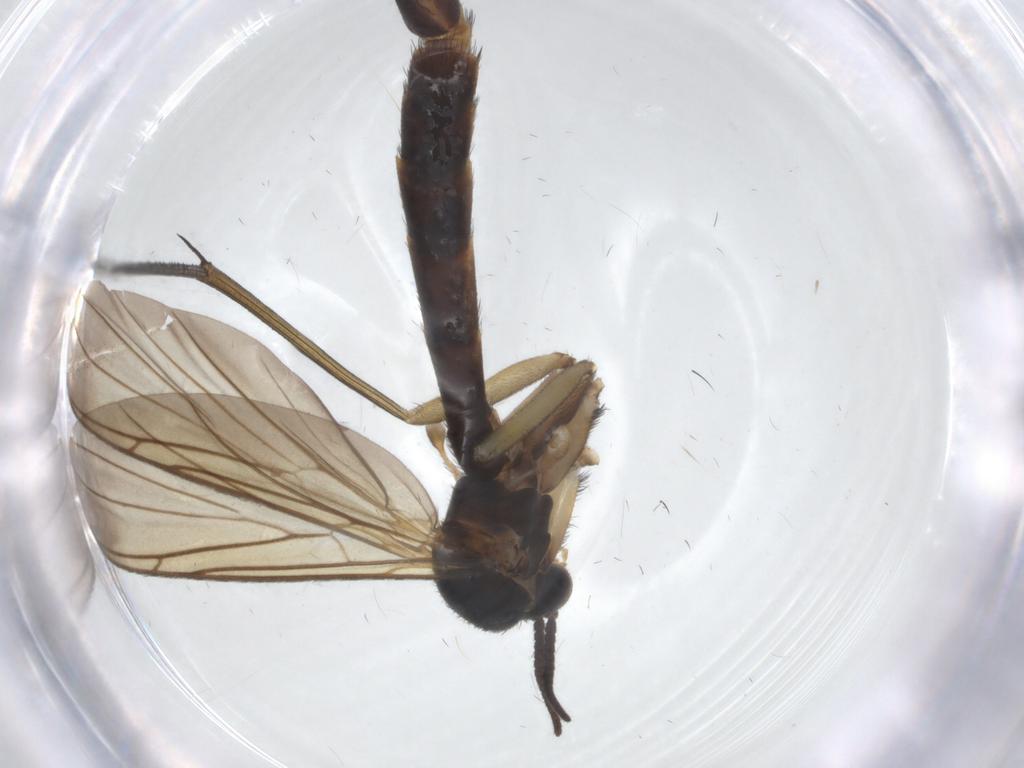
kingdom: Animalia
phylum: Arthropoda
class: Insecta
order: Diptera
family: Keroplatidae
